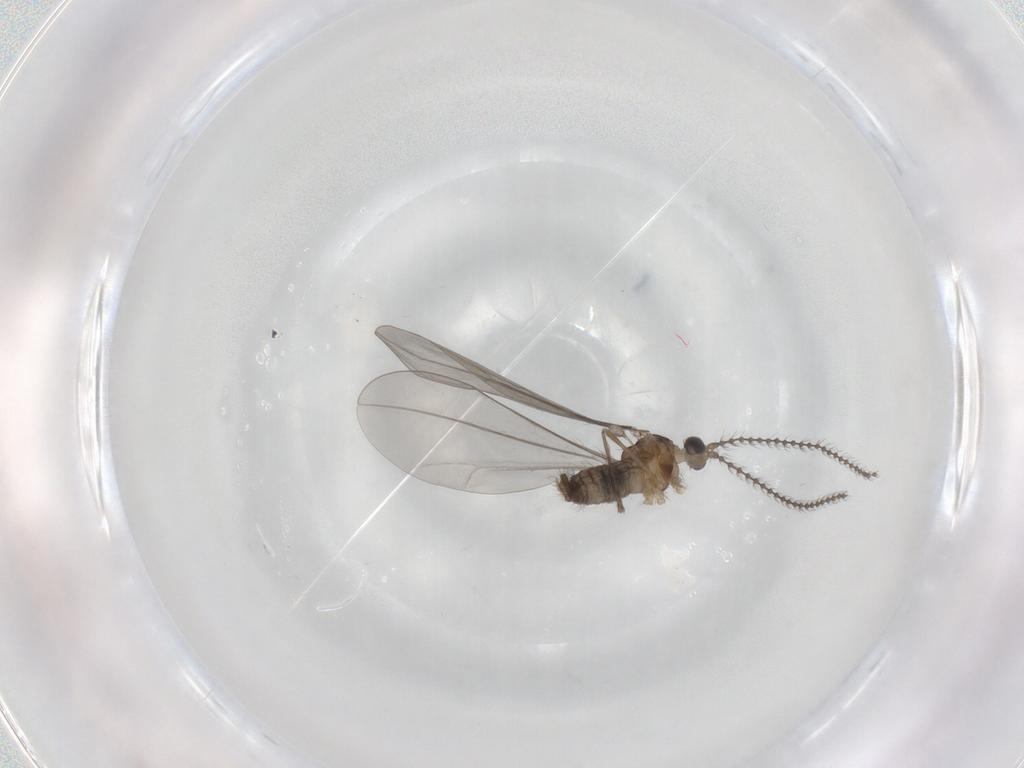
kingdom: Animalia
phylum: Arthropoda
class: Insecta
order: Diptera
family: Cecidomyiidae
